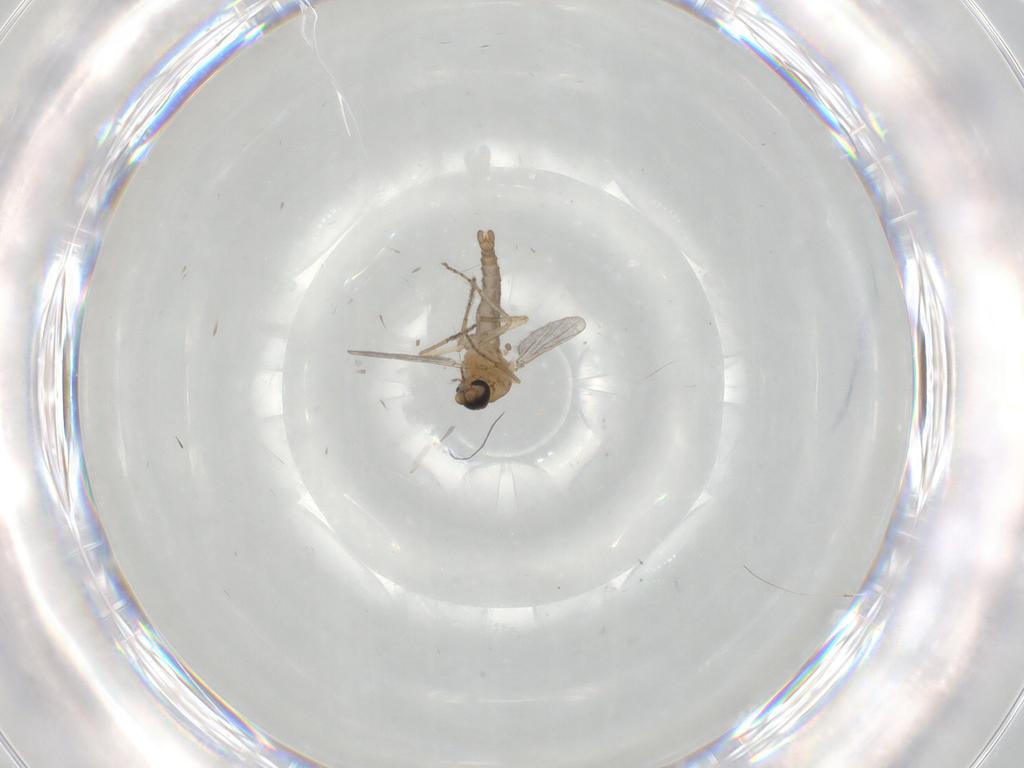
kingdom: Animalia
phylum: Arthropoda
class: Insecta
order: Diptera
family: Ceratopogonidae
